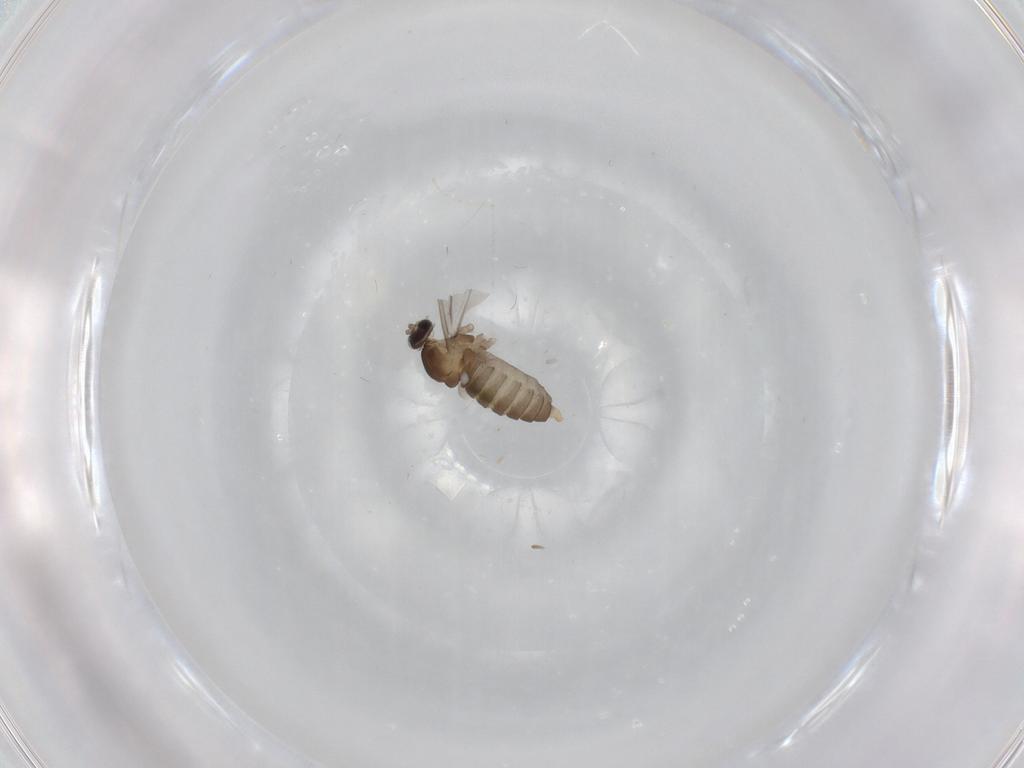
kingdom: Animalia
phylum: Arthropoda
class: Insecta
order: Diptera
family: Cecidomyiidae
